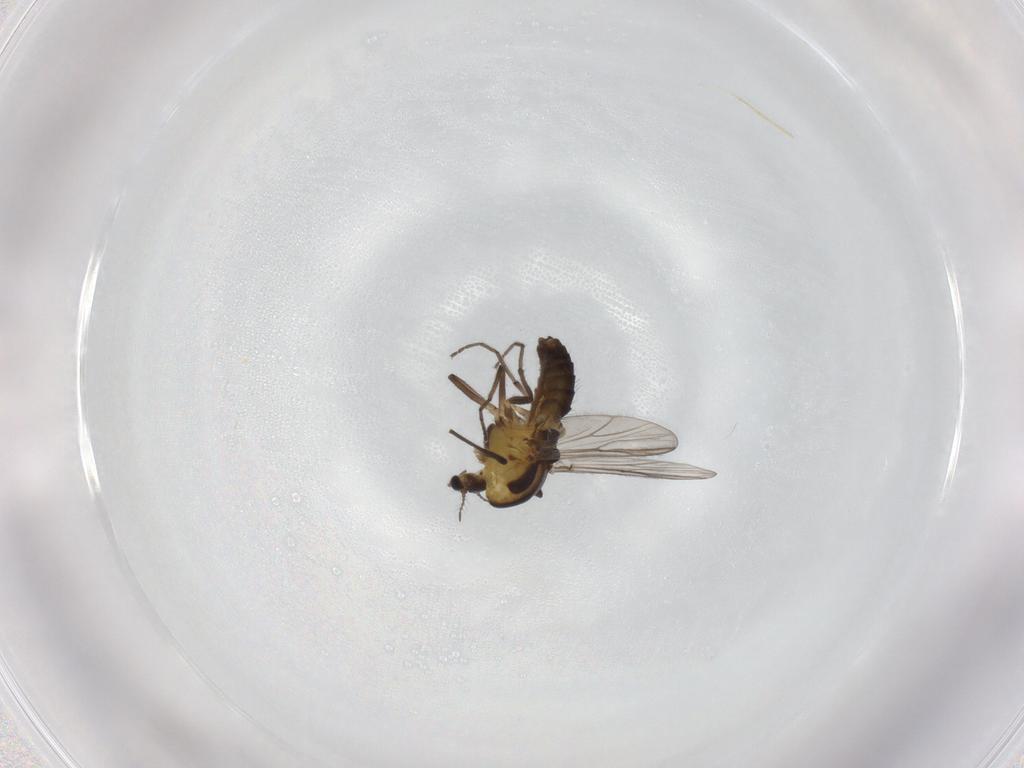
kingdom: Animalia
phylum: Arthropoda
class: Insecta
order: Diptera
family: Chironomidae
